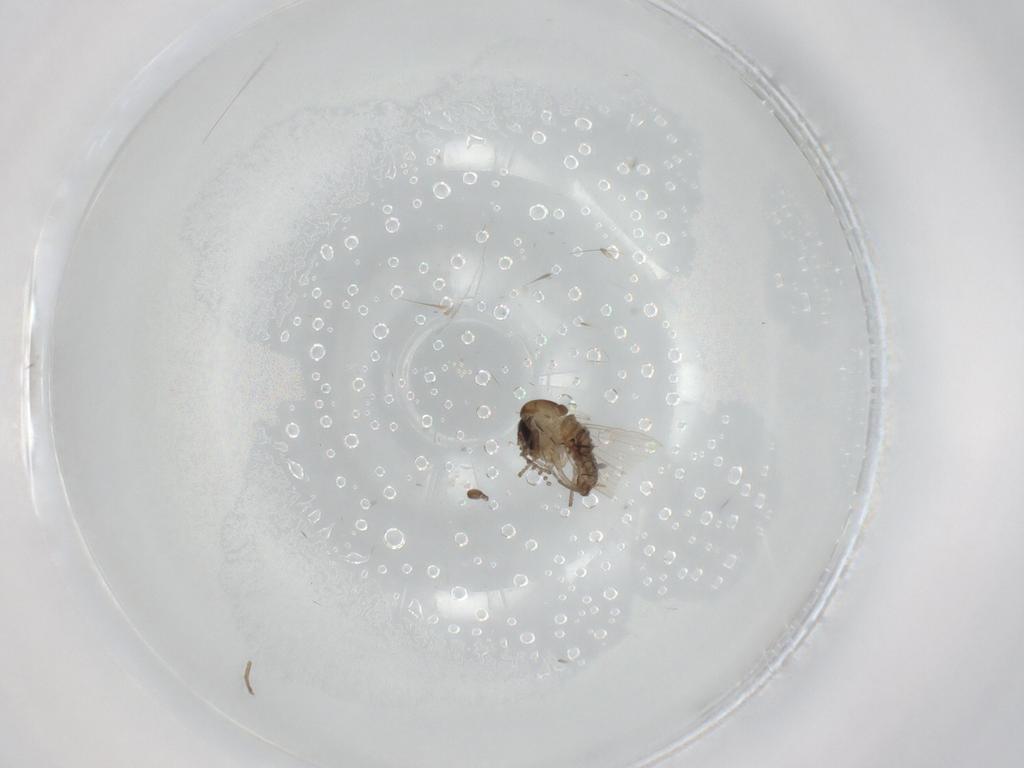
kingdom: Animalia
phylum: Arthropoda
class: Insecta
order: Diptera
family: Psychodidae
